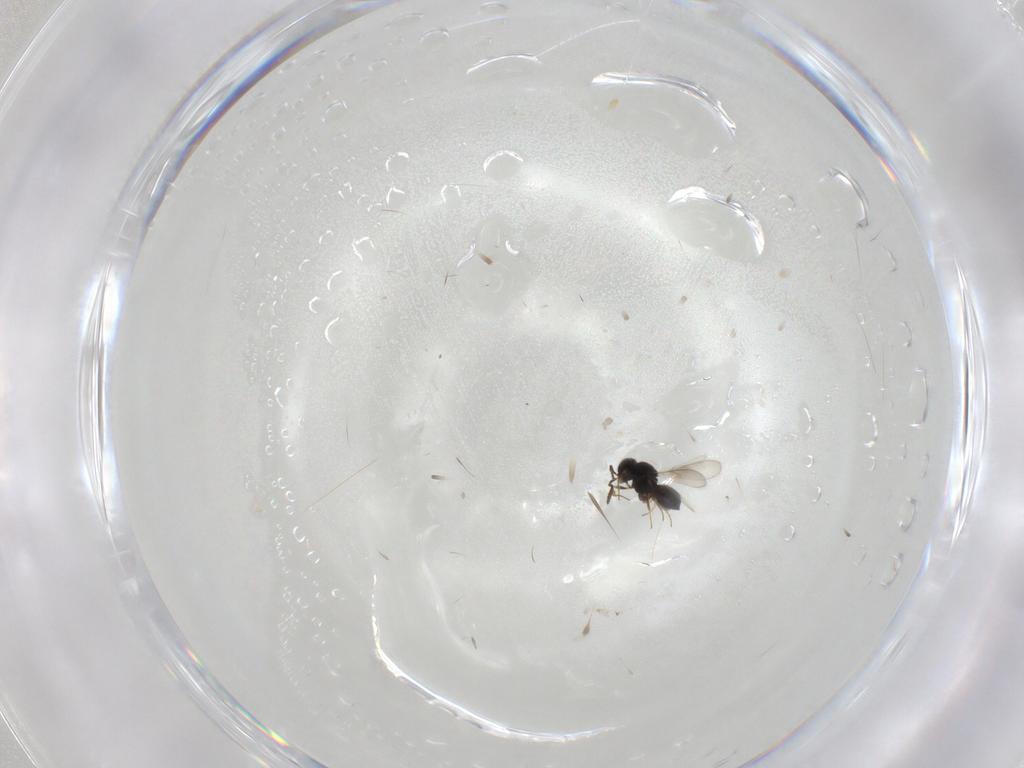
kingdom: Animalia
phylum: Arthropoda
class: Insecta
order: Hymenoptera
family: Scelionidae
